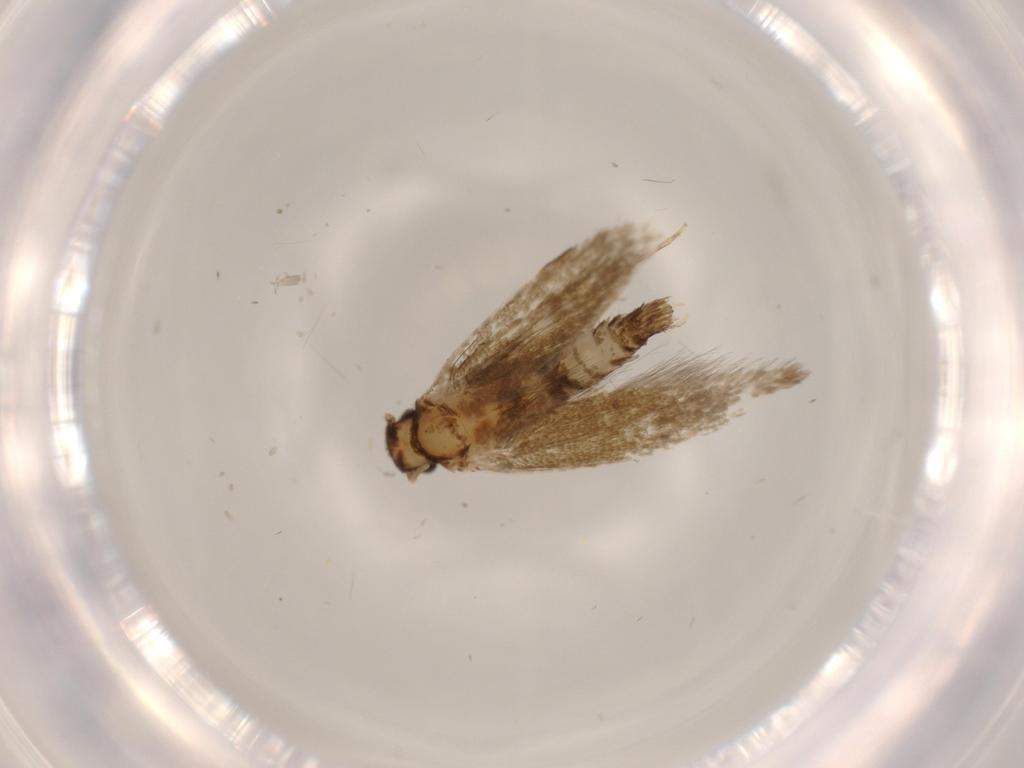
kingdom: Animalia
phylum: Arthropoda
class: Insecta
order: Lepidoptera
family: Tineidae
